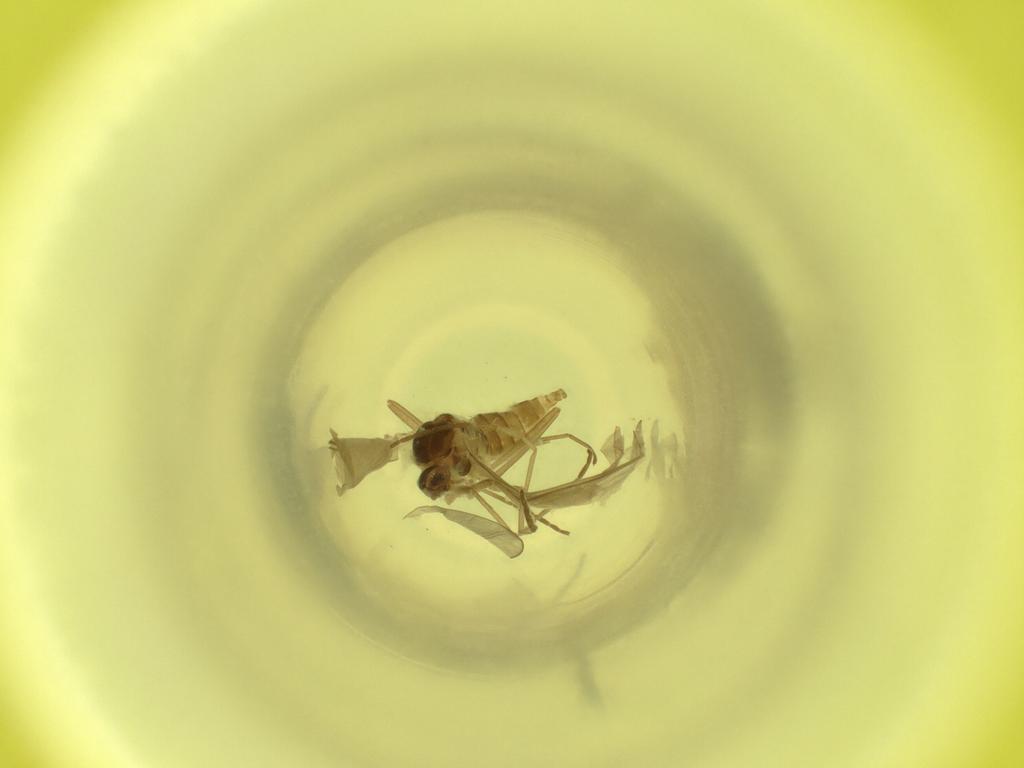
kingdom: Animalia
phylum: Arthropoda
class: Insecta
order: Diptera
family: Cecidomyiidae
